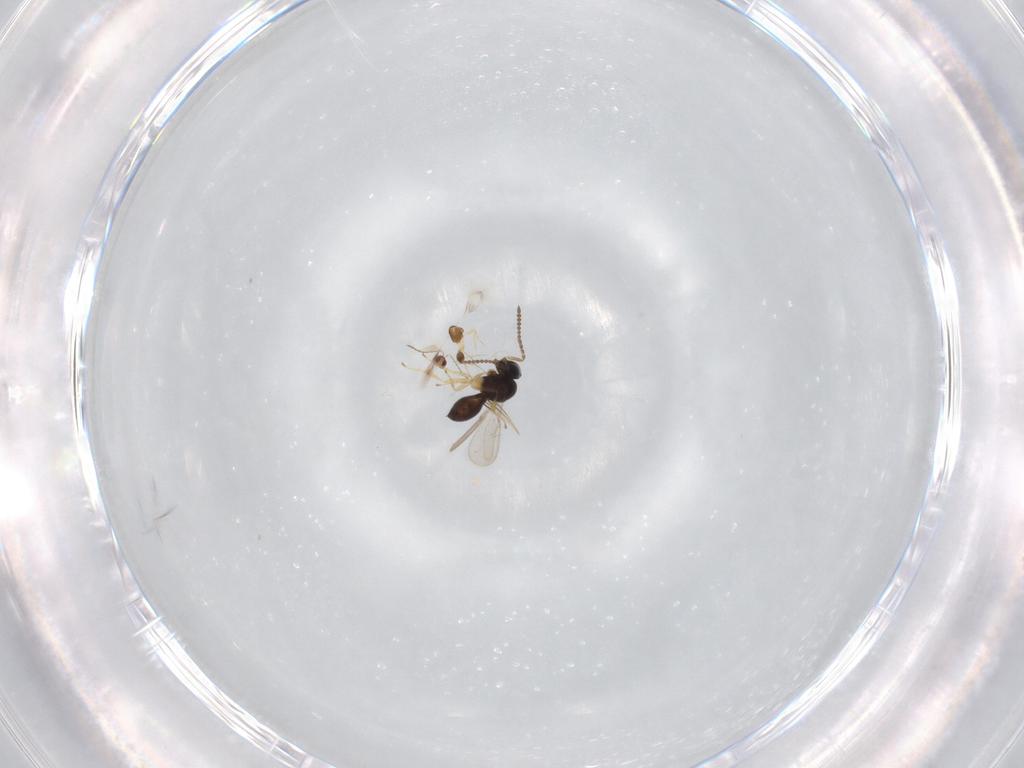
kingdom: Animalia
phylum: Arthropoda
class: Insecta
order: Hymenoptera
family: Scelionidae
